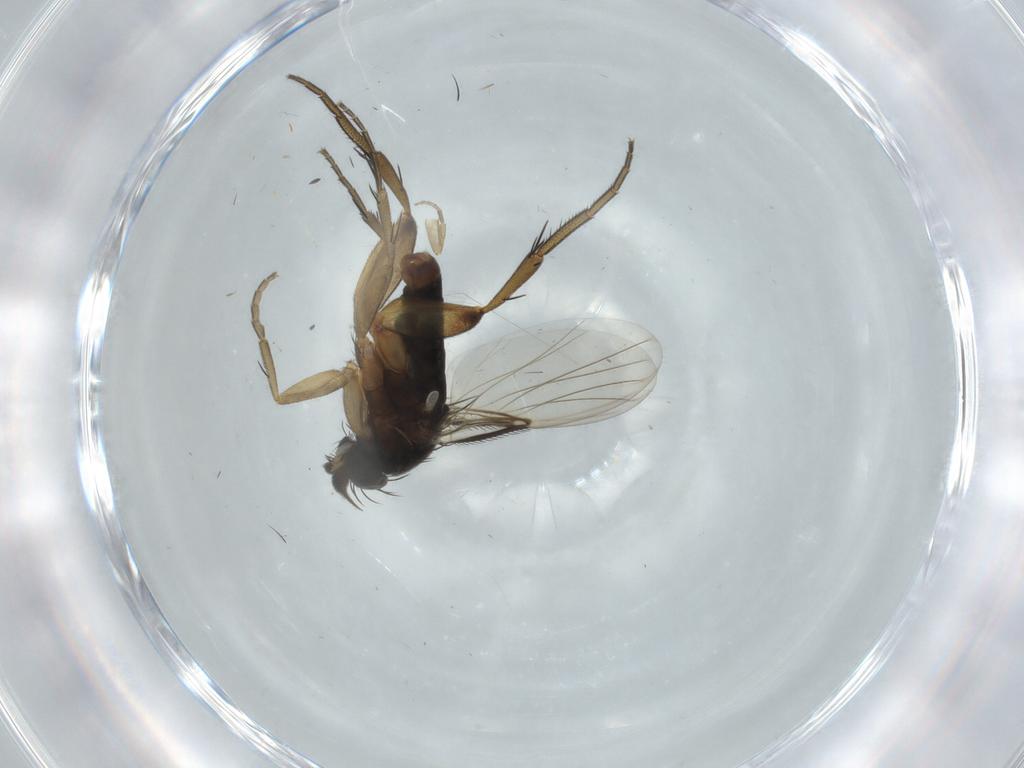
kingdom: Animalia
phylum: Arthropoda
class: Insecta
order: Diptera
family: Phoridae
